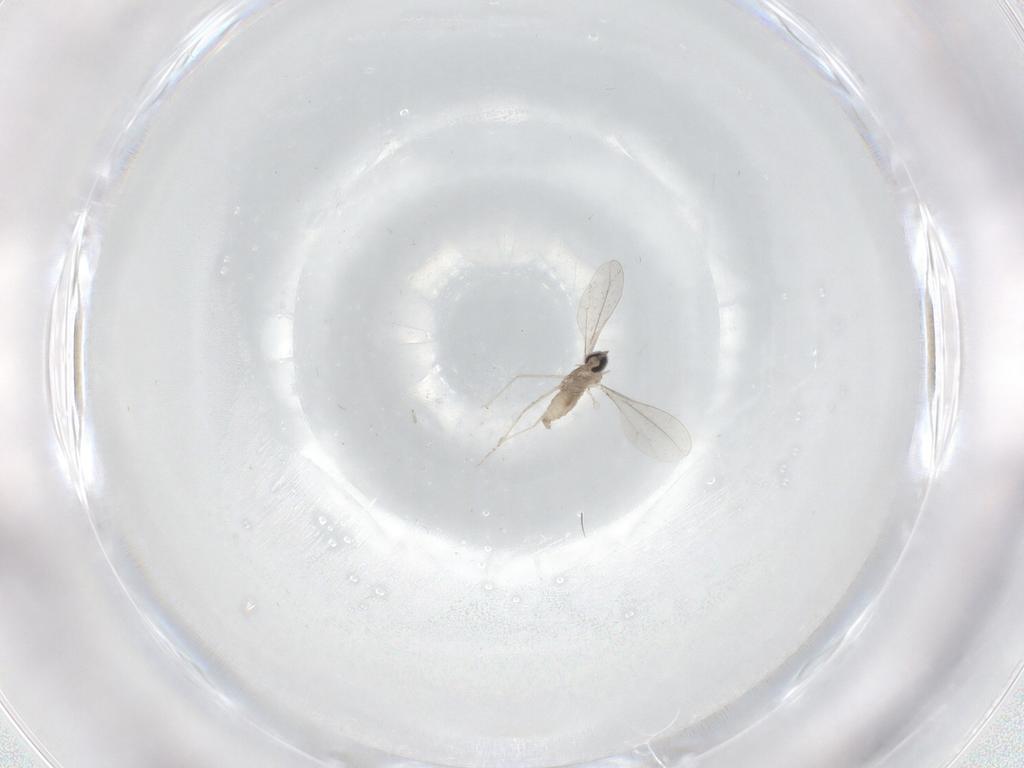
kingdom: Animalia
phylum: Arthropoda
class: Insecta
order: Diptera
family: Cecidomyiidae
